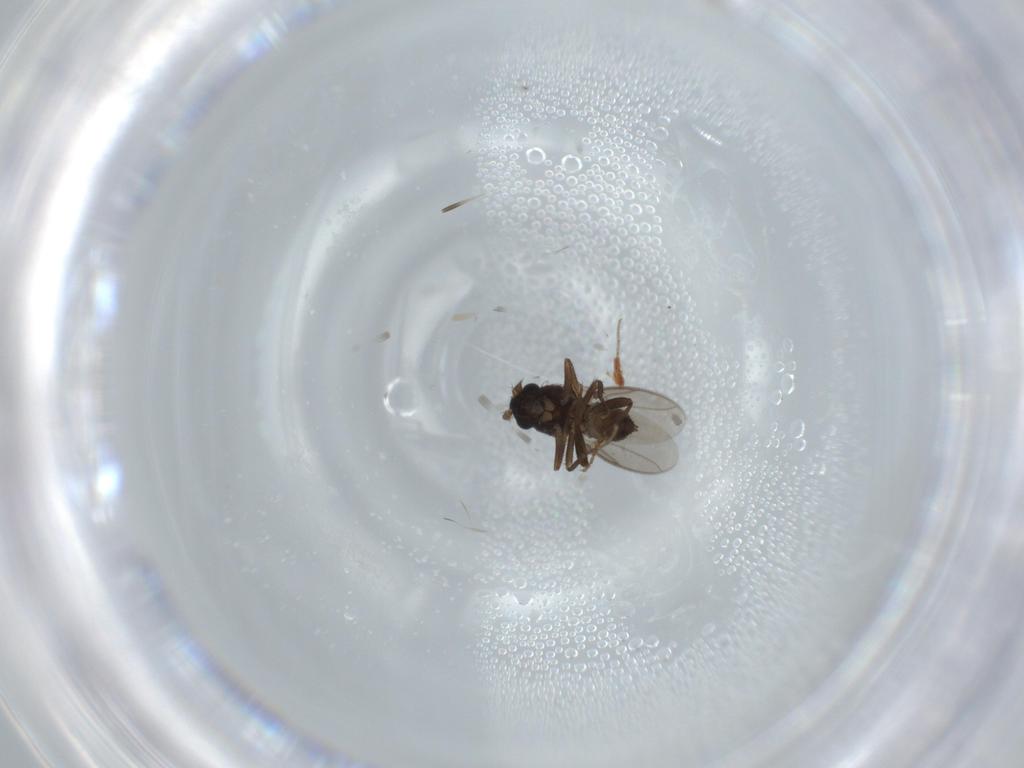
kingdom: Animalia
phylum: Arthropoda
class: Insecta
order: Diptera
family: Sphaeroceridae
